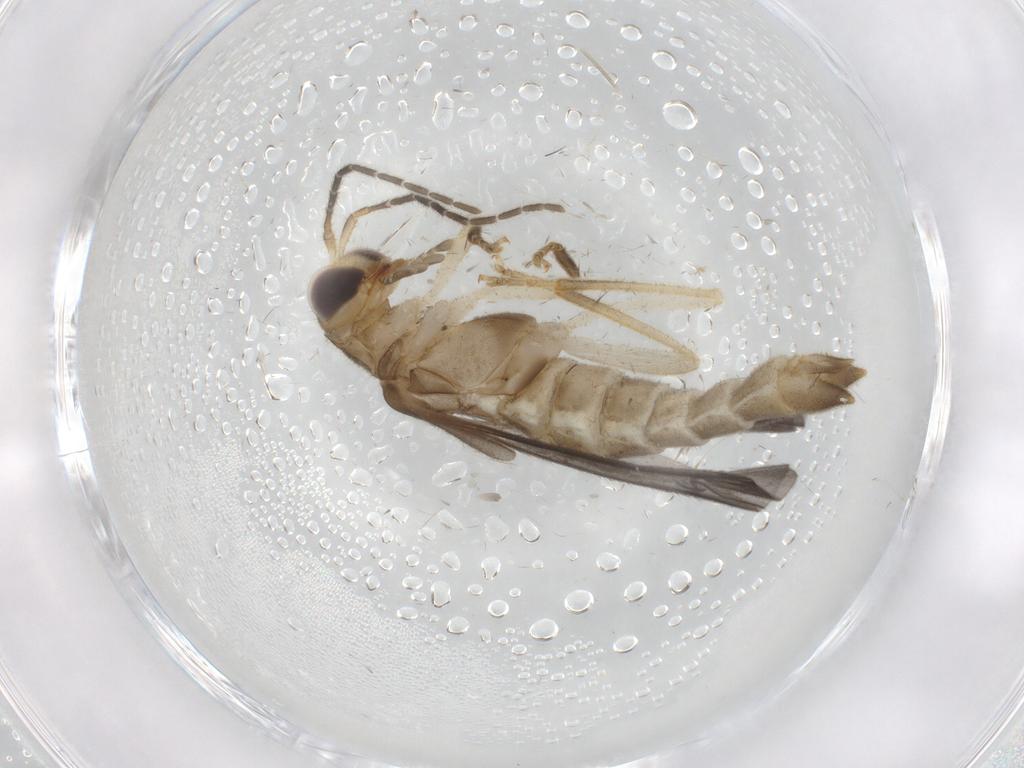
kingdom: Animalia
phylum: Arthropoda
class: Insecta
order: Coleoptera
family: Cantharidae
